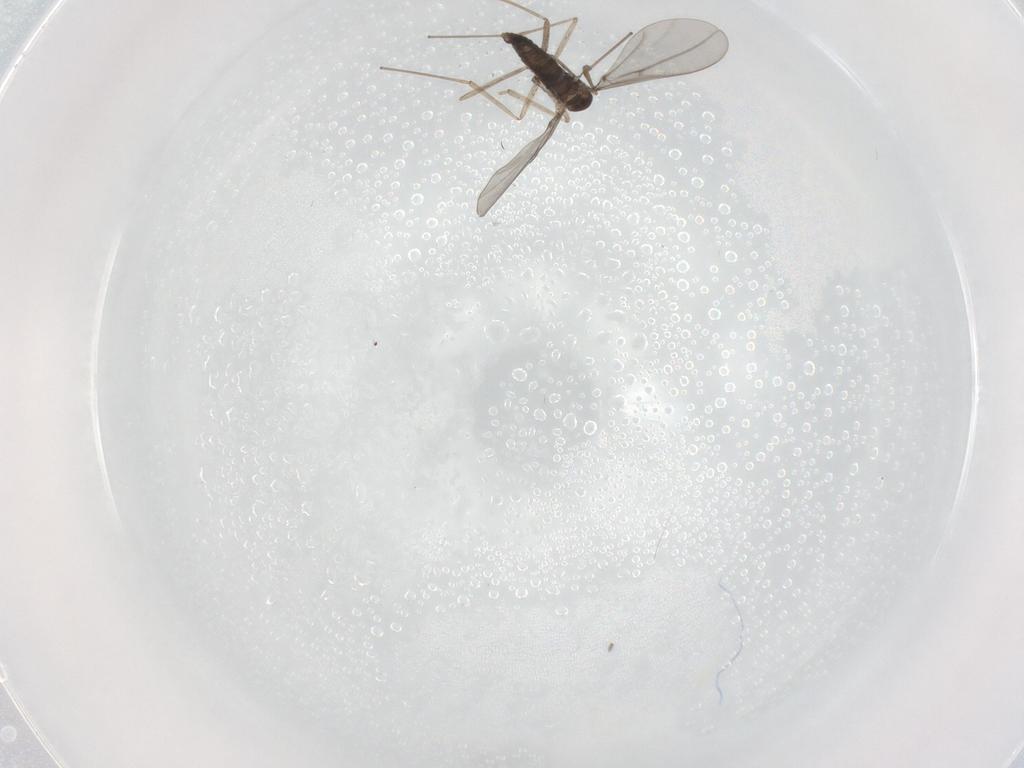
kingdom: Animalia
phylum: Arthropoda
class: Insecta
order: Diptera
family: Cecidomyiidae
